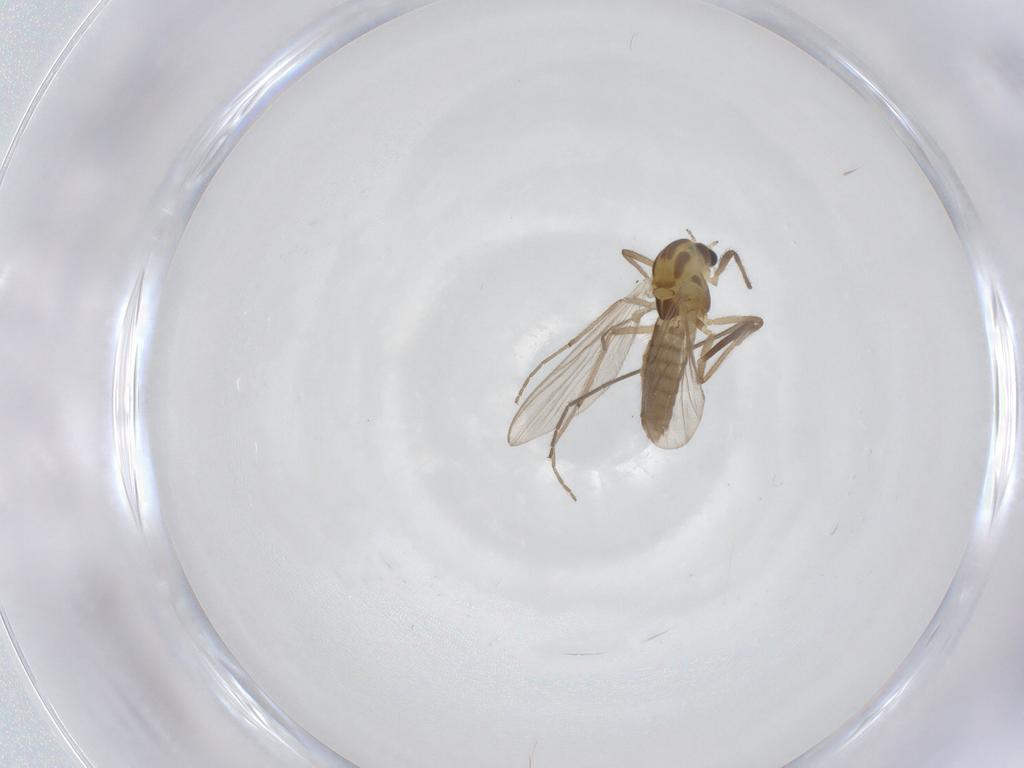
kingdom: Animalia
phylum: Arthropoda
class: Insecta
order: Diptera
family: Chironomidae
